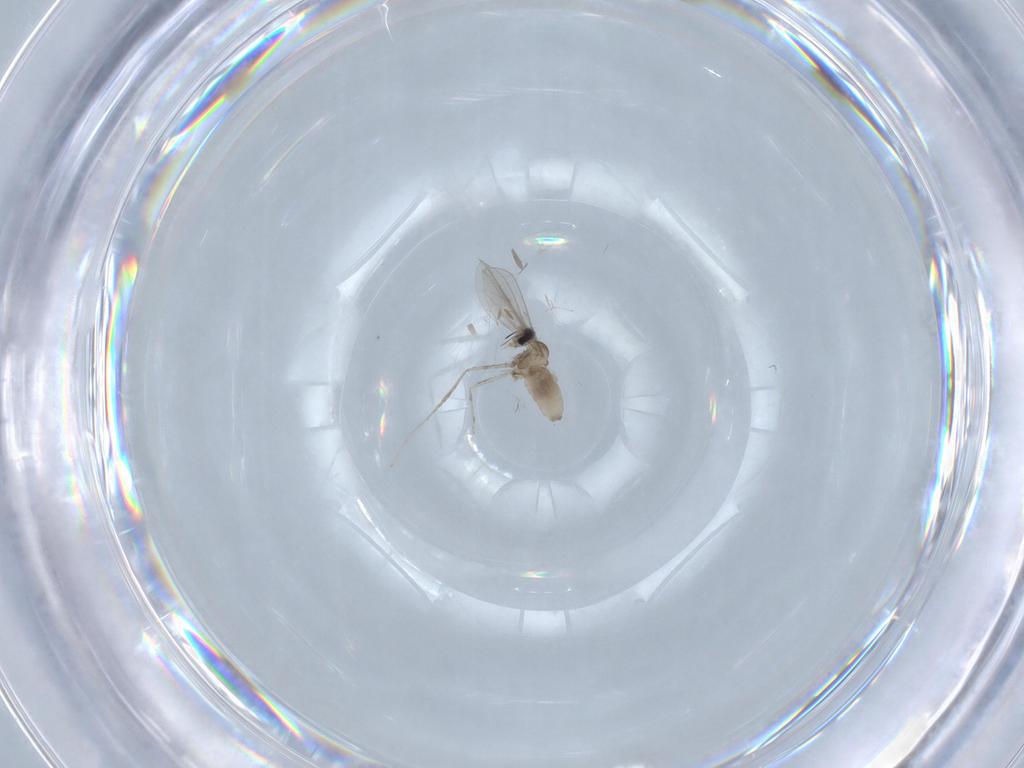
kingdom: Animalia
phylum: Arthropoda
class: Insecta
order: Diptera
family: Cecidomyiidae
